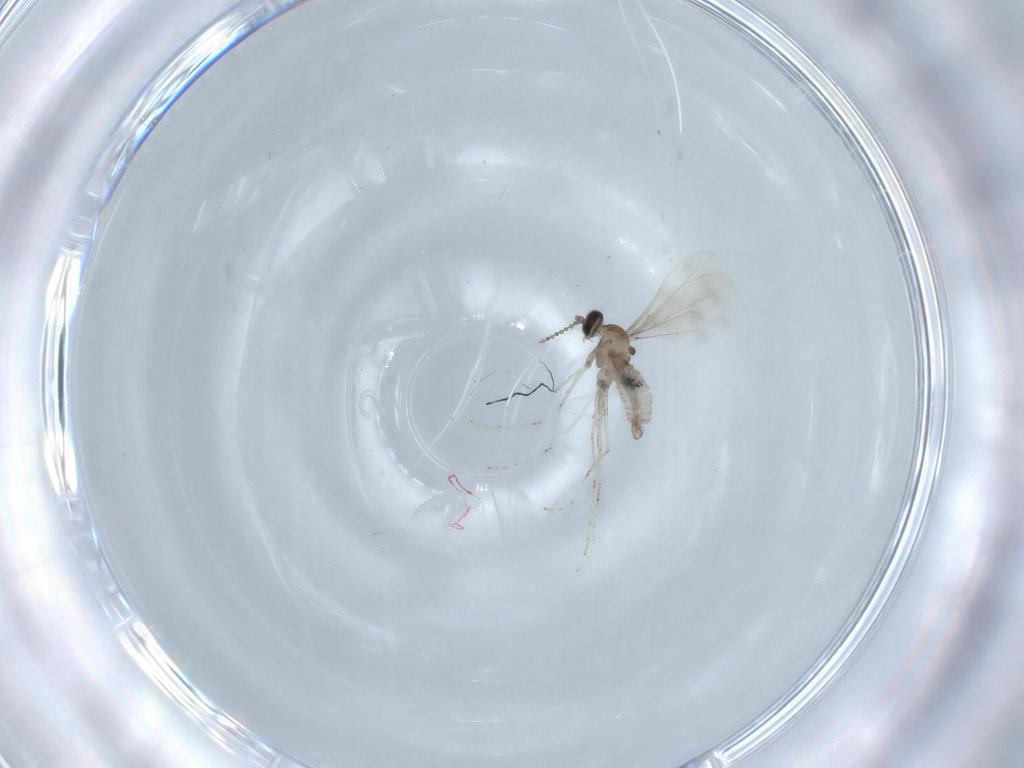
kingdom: Animalia
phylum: Arthropoda
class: Insecta
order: Diptera
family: Cecidomyiidae
